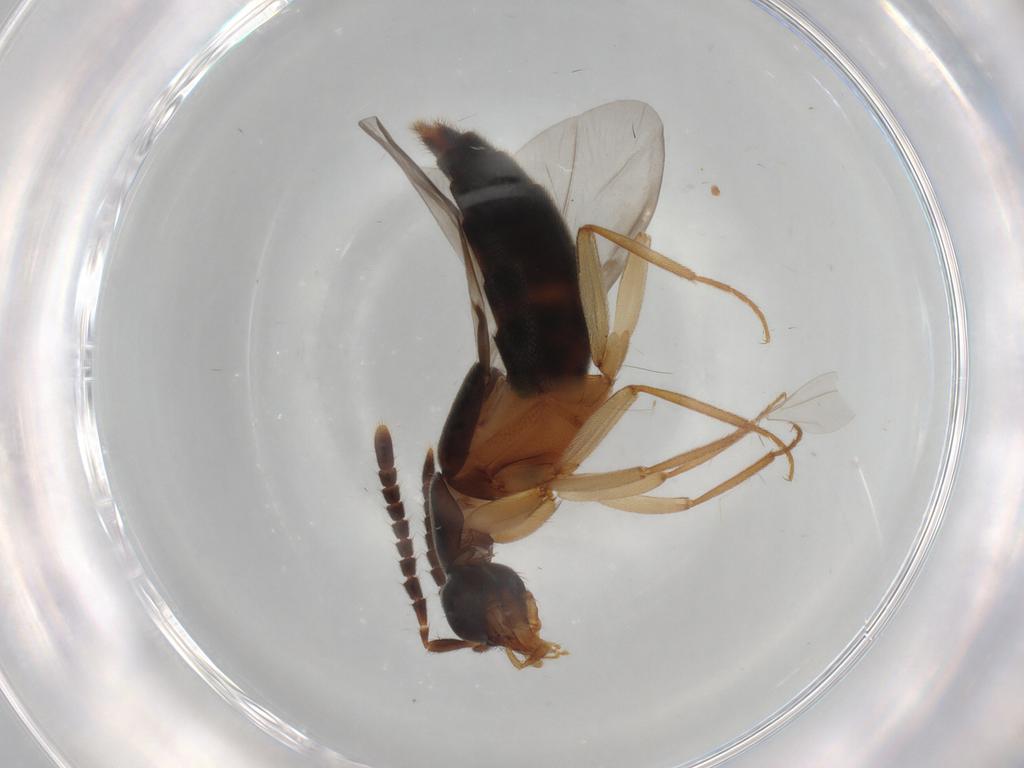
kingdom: Animalia
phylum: Arthropoda
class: Insecta
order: Coleoptera
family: Staphylinidae
